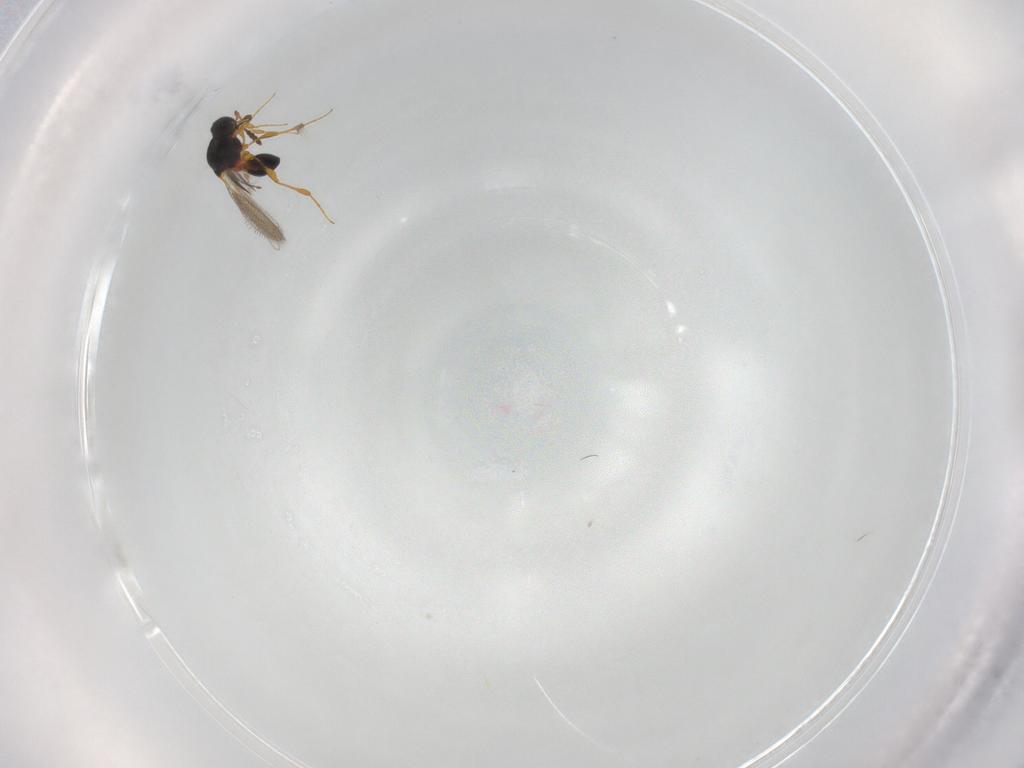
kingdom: Animalia
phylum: Arthropoda
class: Insecta
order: Hymenoptera
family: Platygastridae
